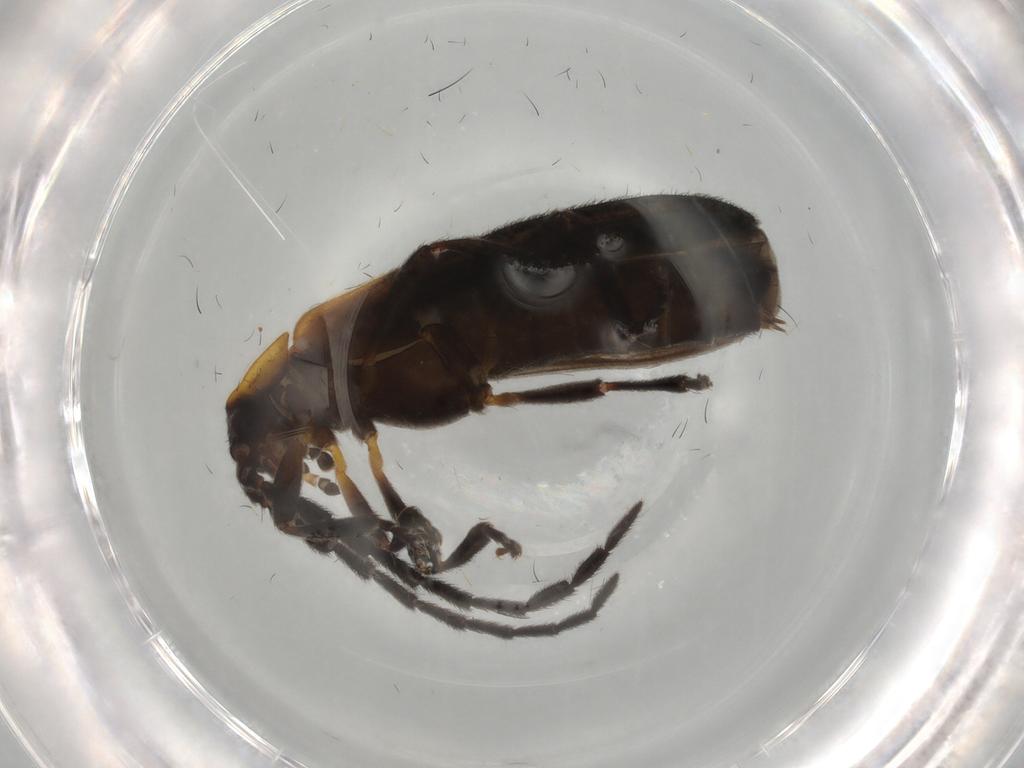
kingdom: Animalia
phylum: Arthropoda
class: Insecta
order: Coleoptera
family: Lycidae
